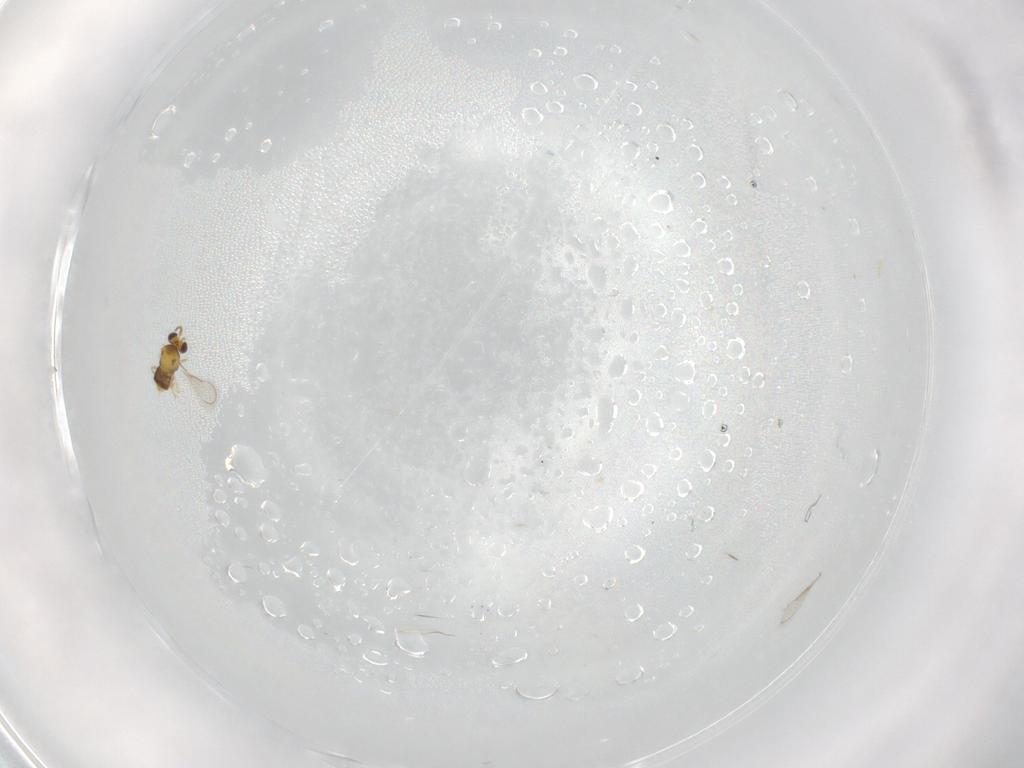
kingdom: Animalia
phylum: Arthropoda
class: Insecta
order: Diptera
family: Ceratopogonidae
